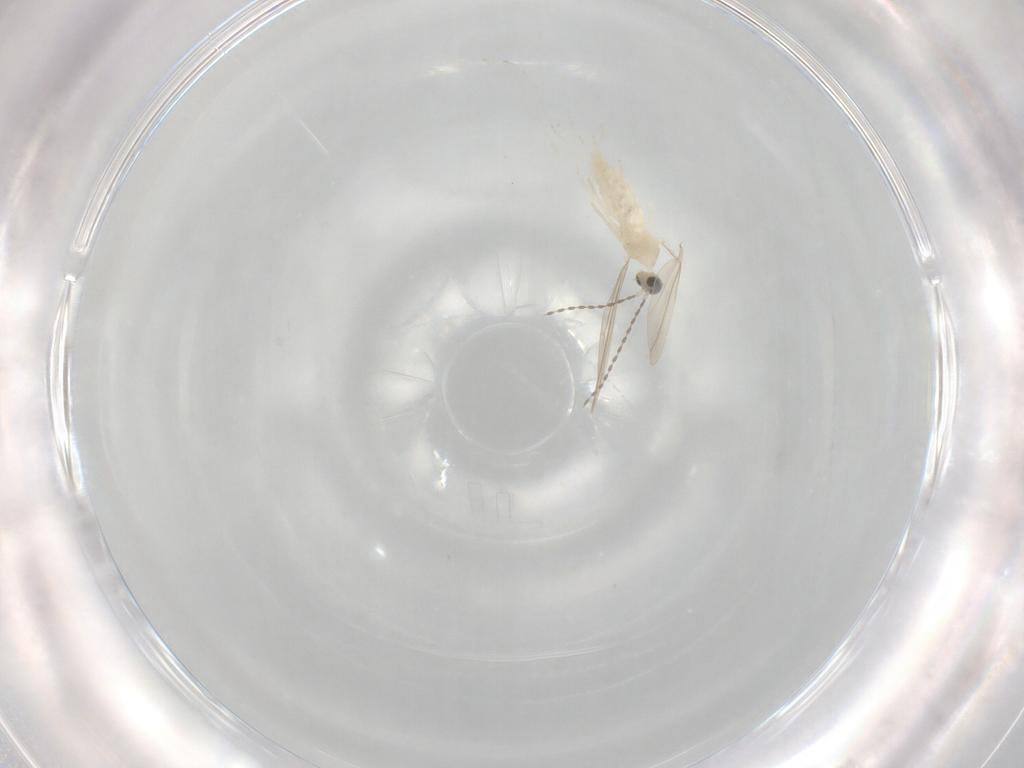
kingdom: Animalia
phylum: Arthropoda
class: Insecta
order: Diptera
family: Cecidomyiidae
